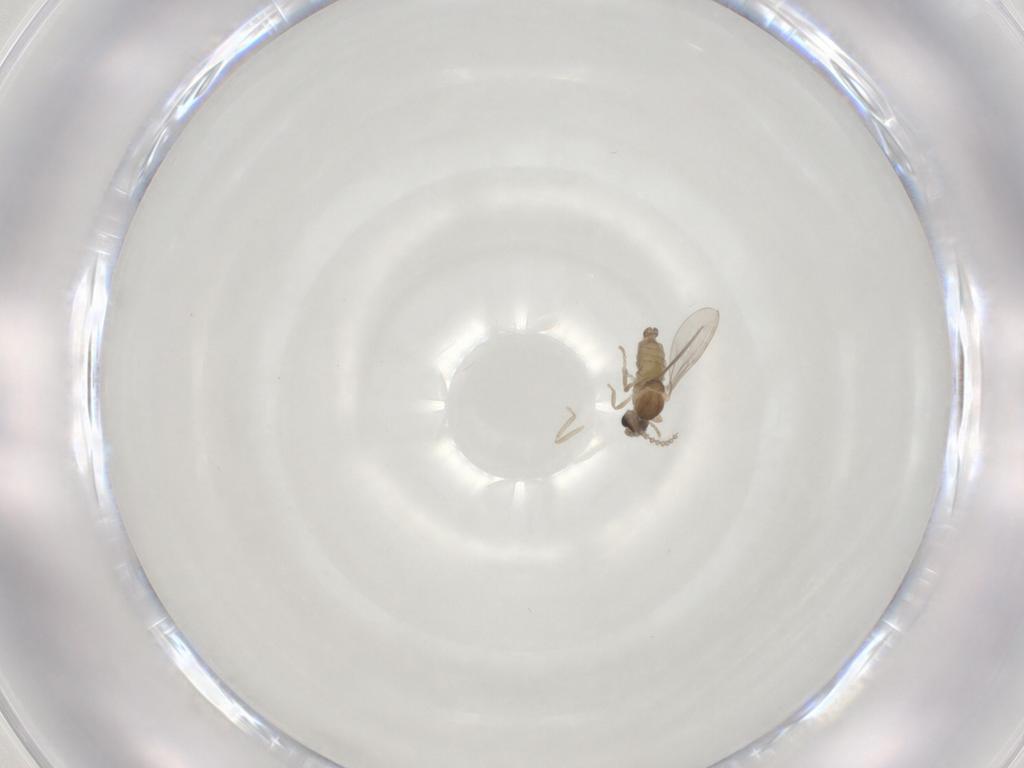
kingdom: Animalia
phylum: Arthropoda
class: Insecta
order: Diptera
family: Cecidomyiidae
